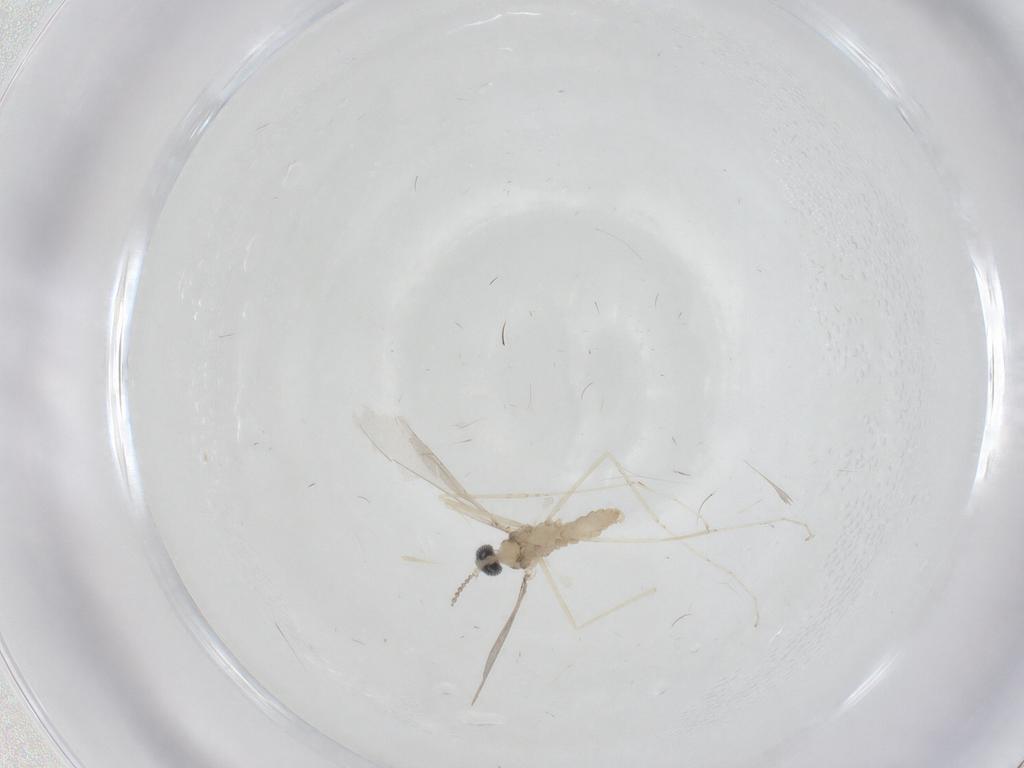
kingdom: Animalia
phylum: Arthropoda
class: Insecta
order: Diptera
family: Cecidomyiidae
